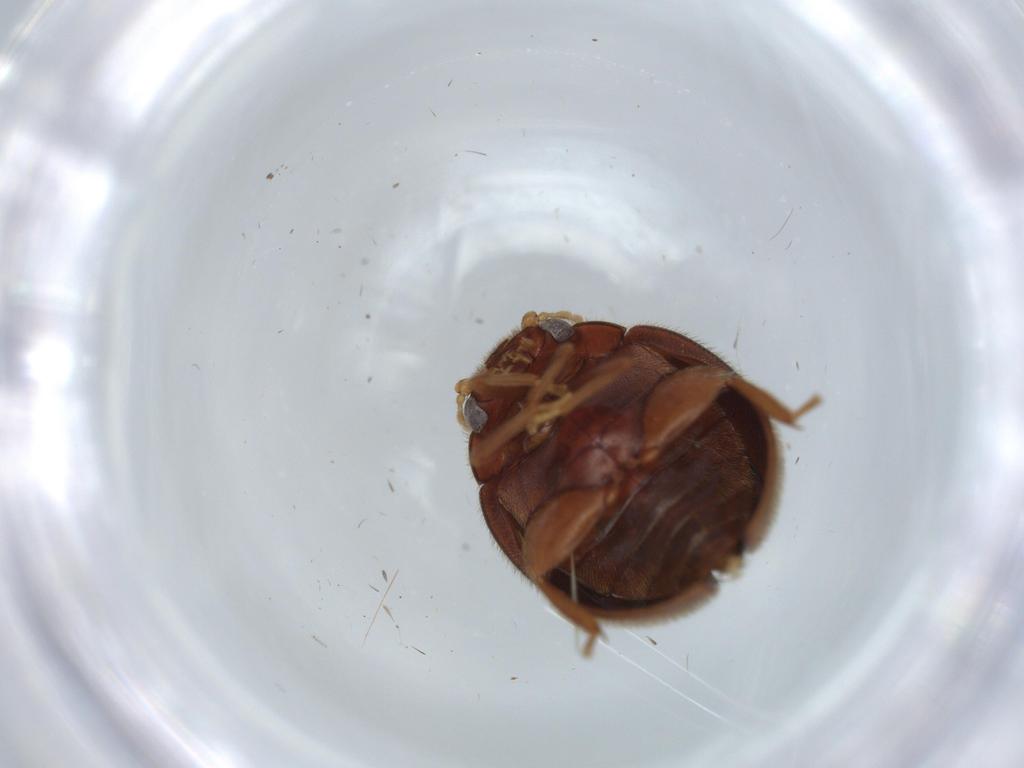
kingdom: Animalia
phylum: Arthropoda
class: Insecta
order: Coleoptera
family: Scirtidae
